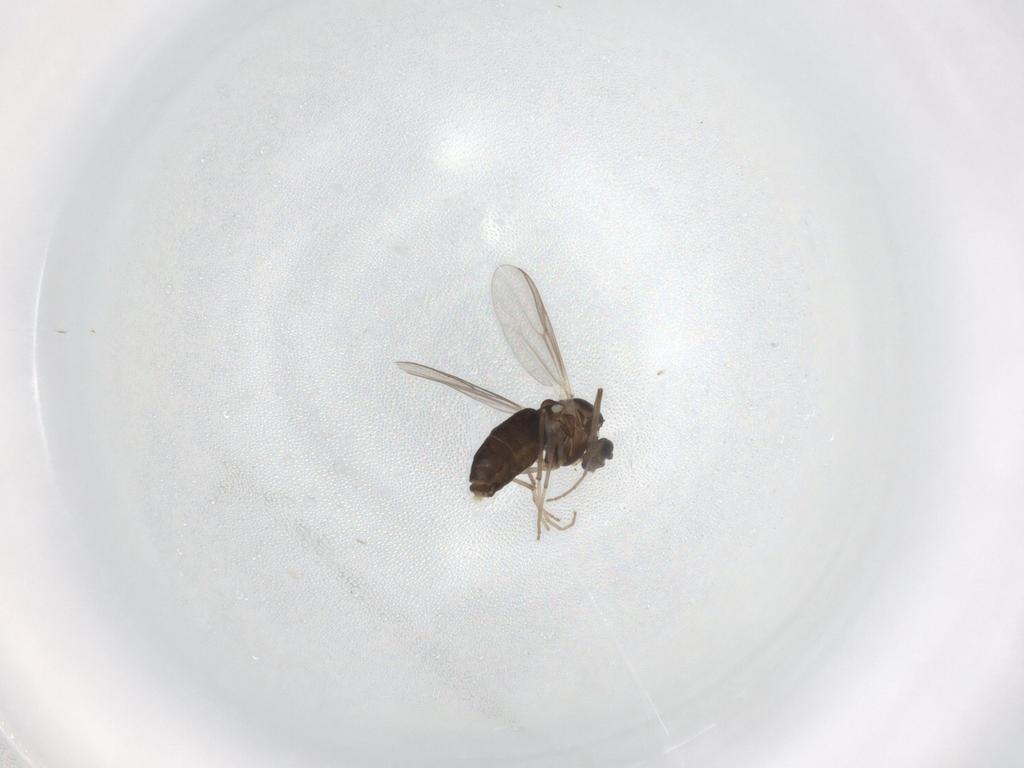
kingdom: Animalia
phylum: Arthropoda
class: Insecta
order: Diptera
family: Chironomidae
